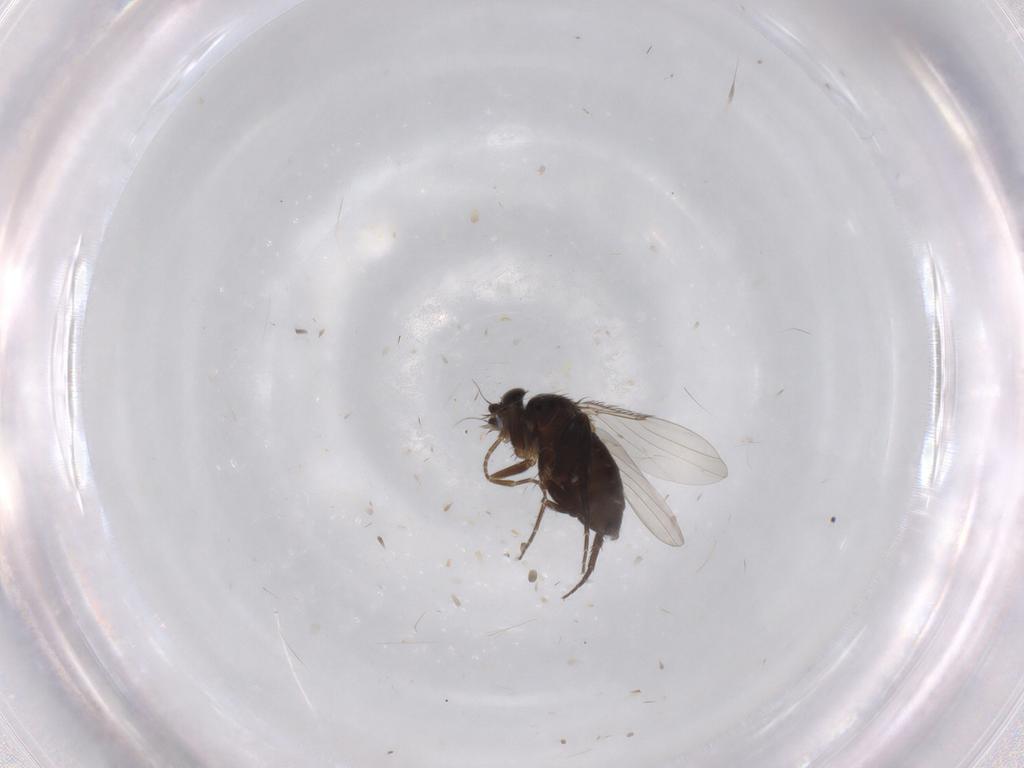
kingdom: Animalia
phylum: Arthropoda
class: Insecta
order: Diptera
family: Phoridae
